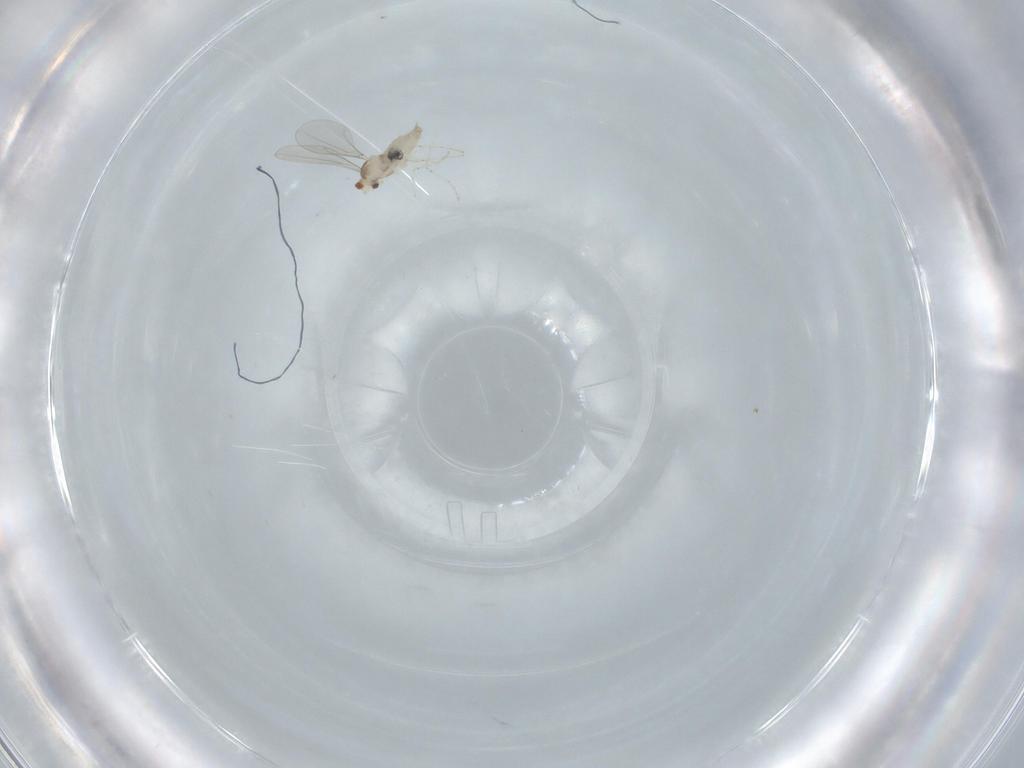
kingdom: Animalia
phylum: Arthropoda
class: Insecta
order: Diptera
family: Cecidomyiidae
